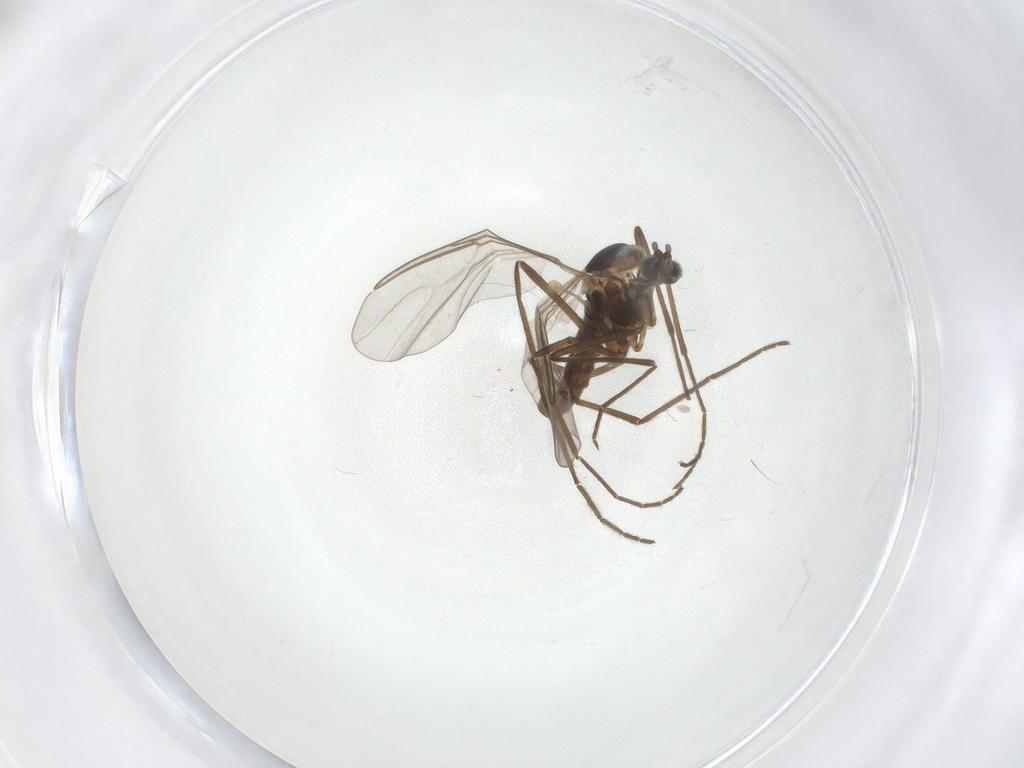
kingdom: Animalia
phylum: Arthropoda
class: Insecta
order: Diptera
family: Cecidomyiidae
